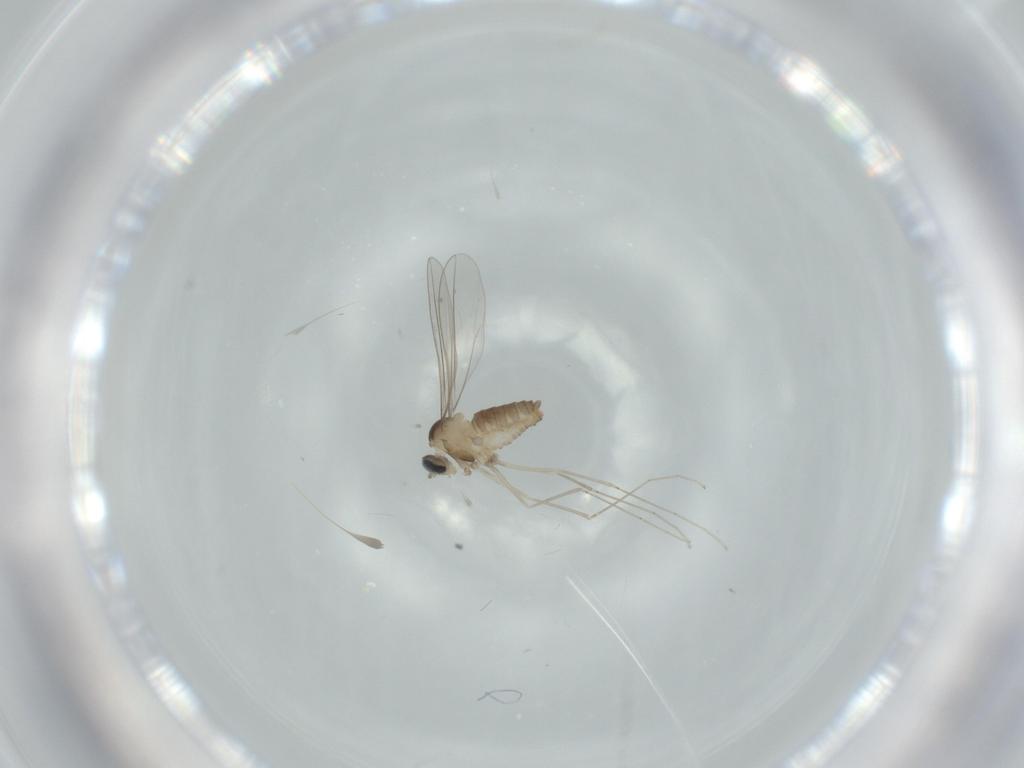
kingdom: Animalia
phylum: Arthropoda
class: Insecta
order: Diptera
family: Cecidomyiidae
